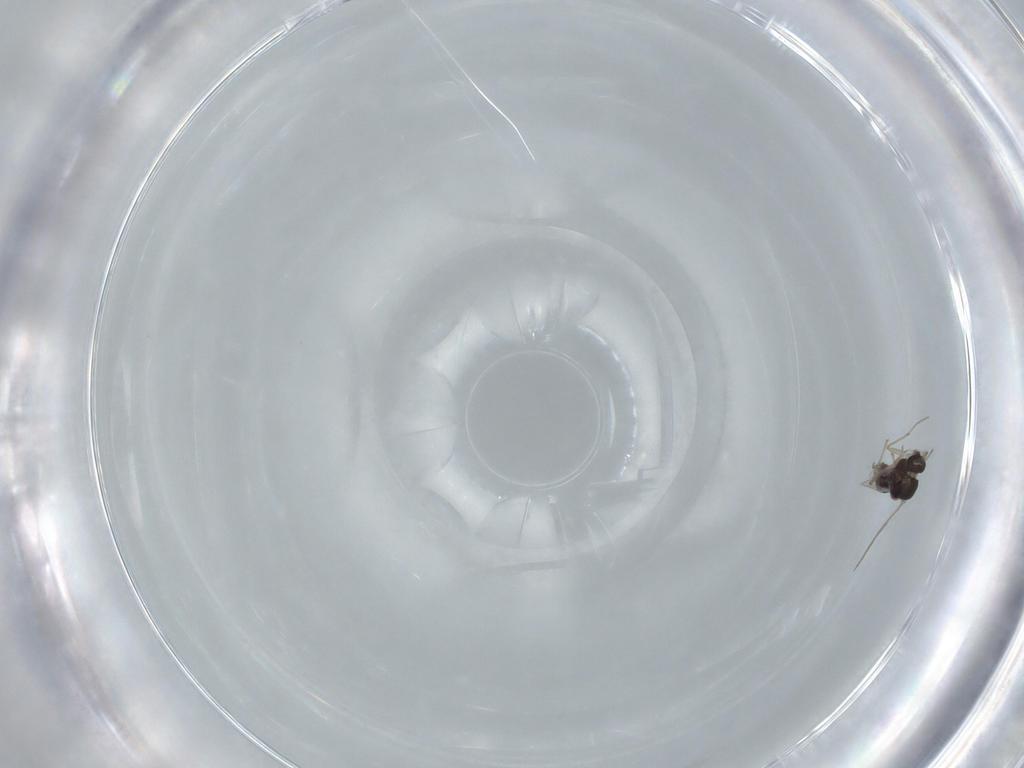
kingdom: Animalia
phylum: Arthropoda
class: Insecta
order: Diptera
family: Chironomidae
